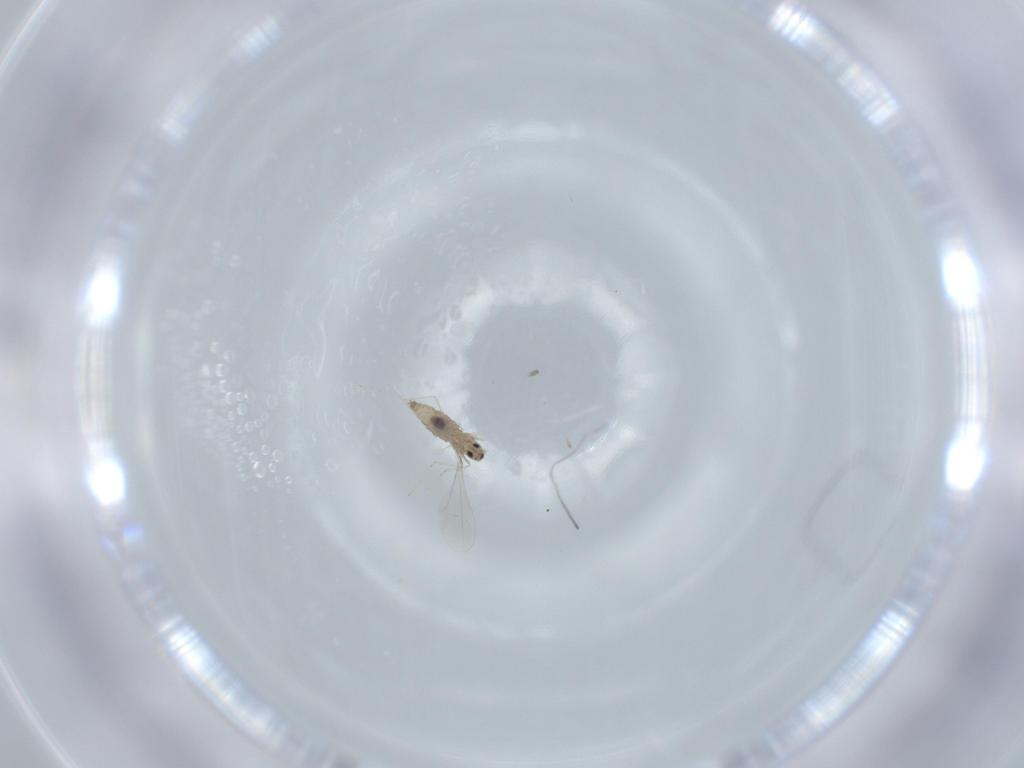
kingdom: Animalia
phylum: Arthropoda
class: Insecta
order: Diptera
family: Cecidomyiidae
